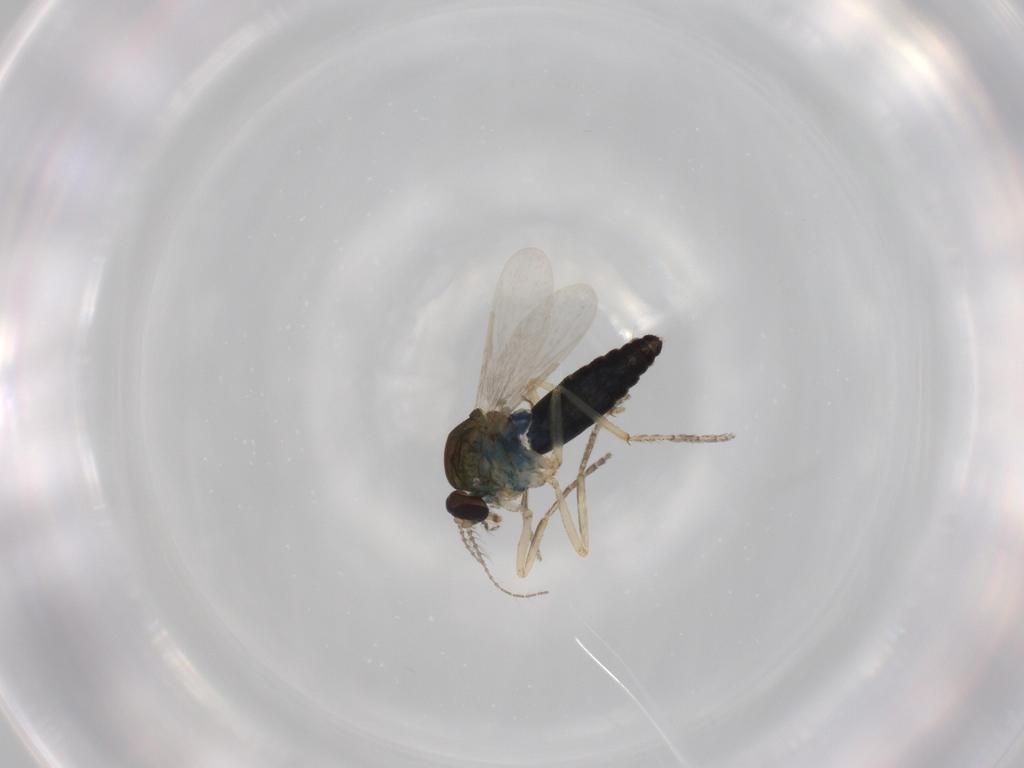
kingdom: Animalia
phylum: Arthropoda
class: Insecta
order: Diptera
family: Ceratopogonidae
